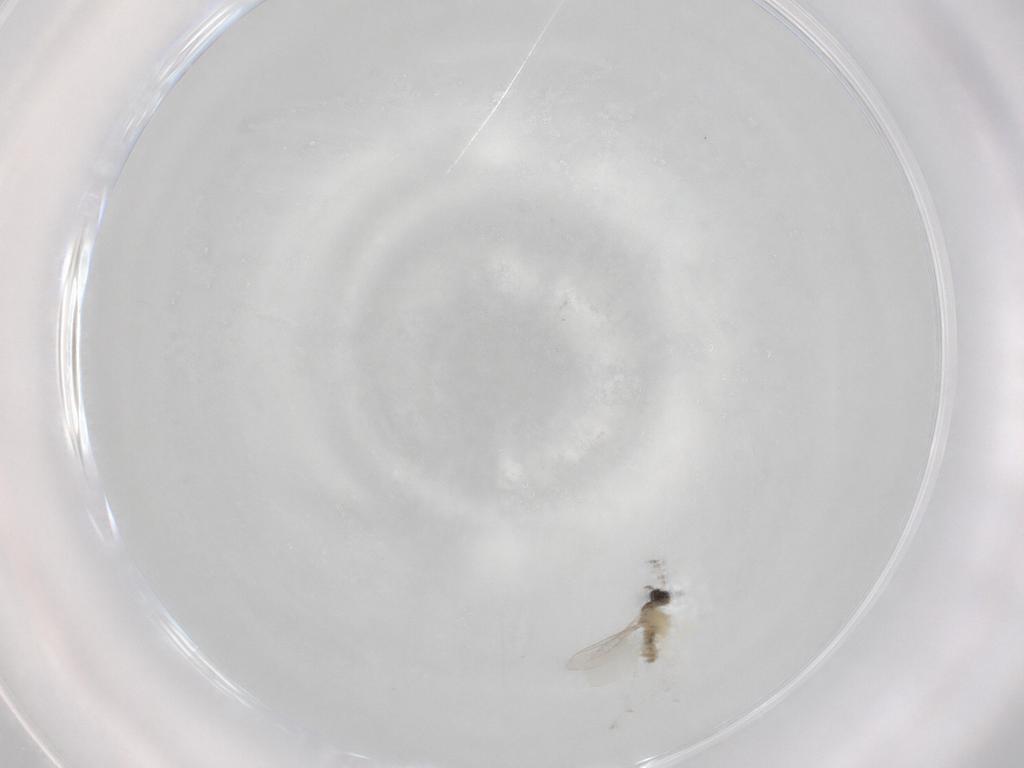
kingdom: Animalia
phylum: Arthropoda
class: Insecta
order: Diptera
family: Cecidomyiidae
